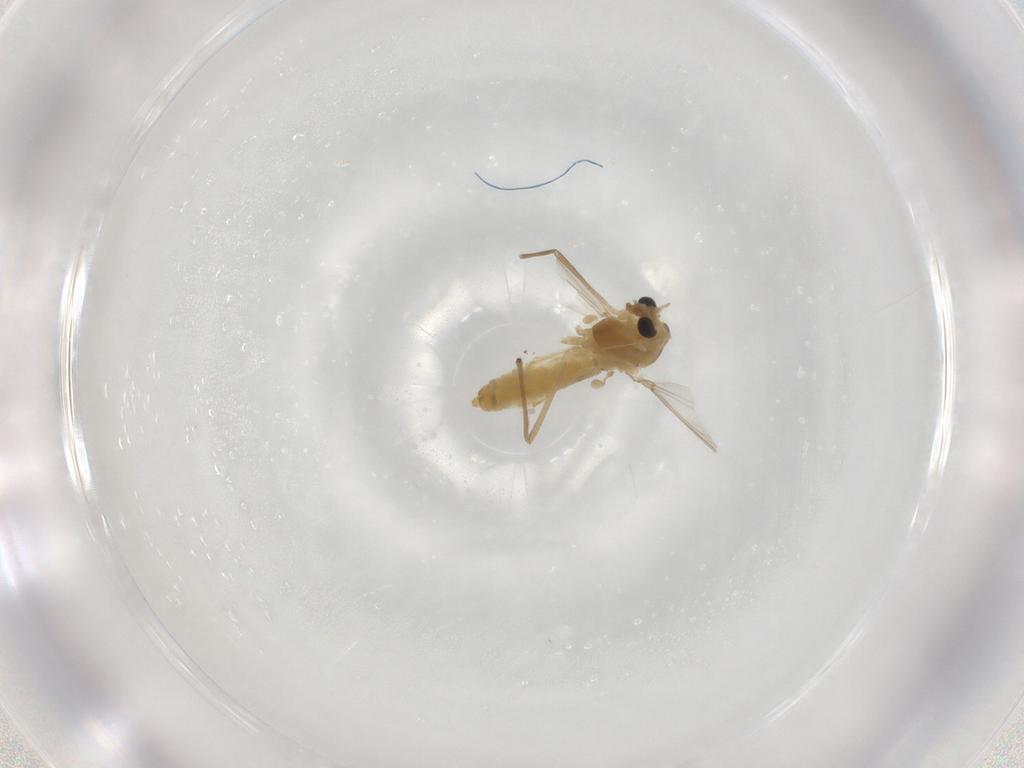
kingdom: Animalia
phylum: Arthropoda
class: Insecta
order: Diptera
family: Chironomidae
